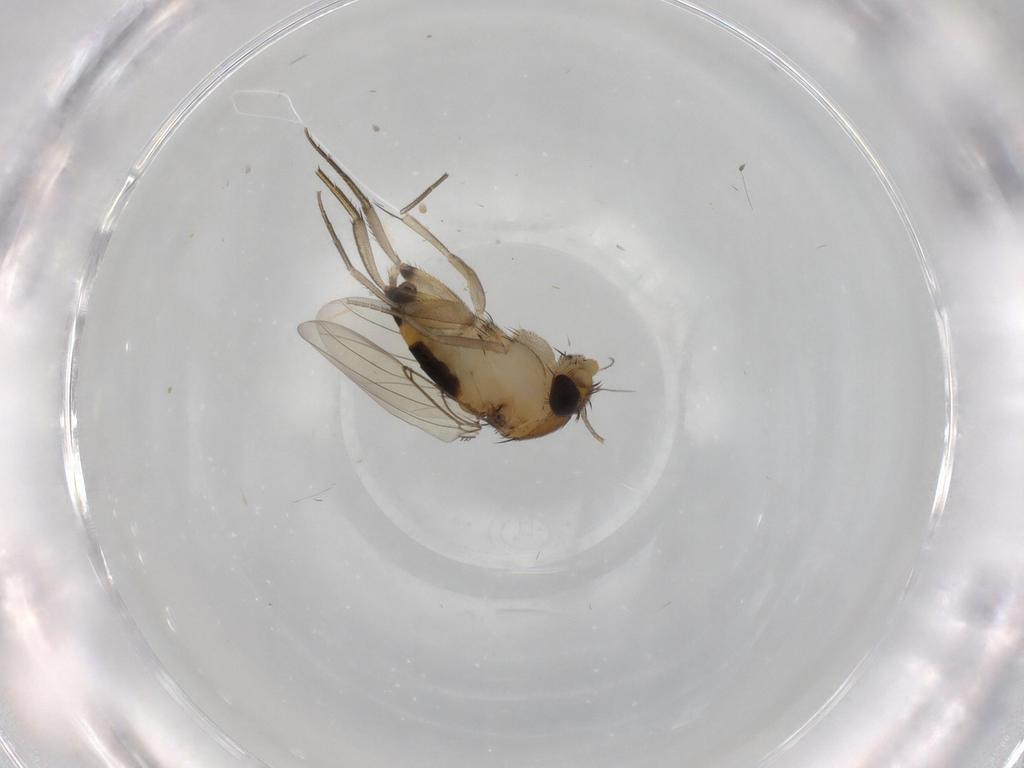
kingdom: Animalia
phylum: Arthropoda
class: Insecta
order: Diptera
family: Phoridae
